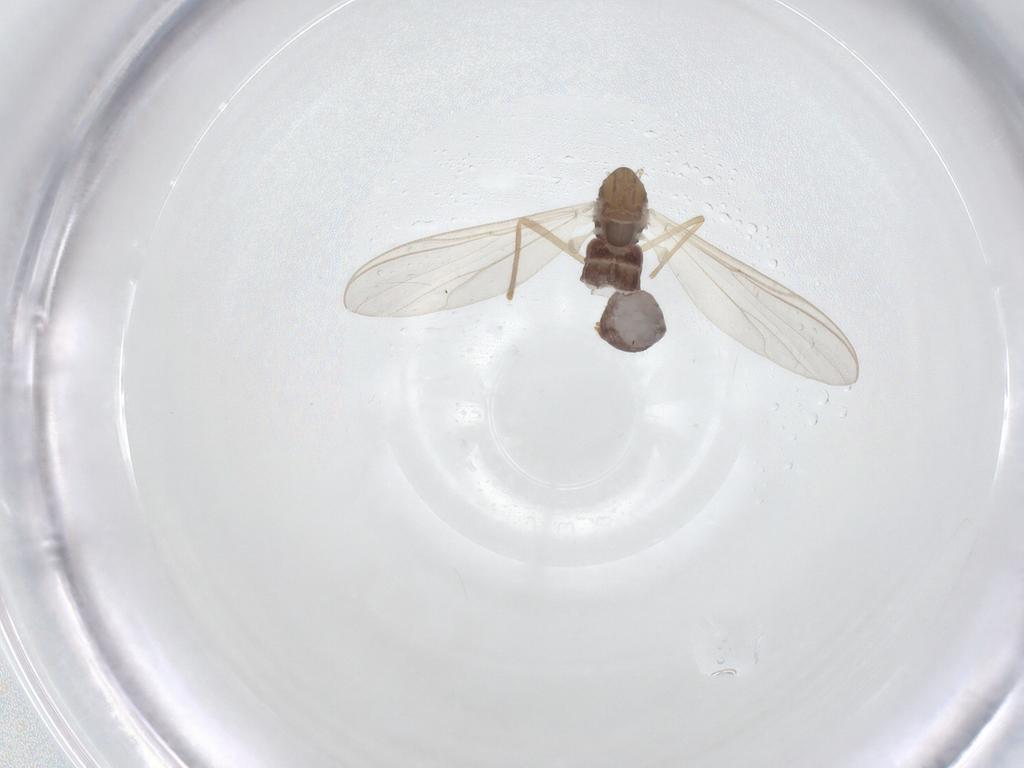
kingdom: Animalia
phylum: Arthropoda
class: Insecta
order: Diptera
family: Chironomidae
